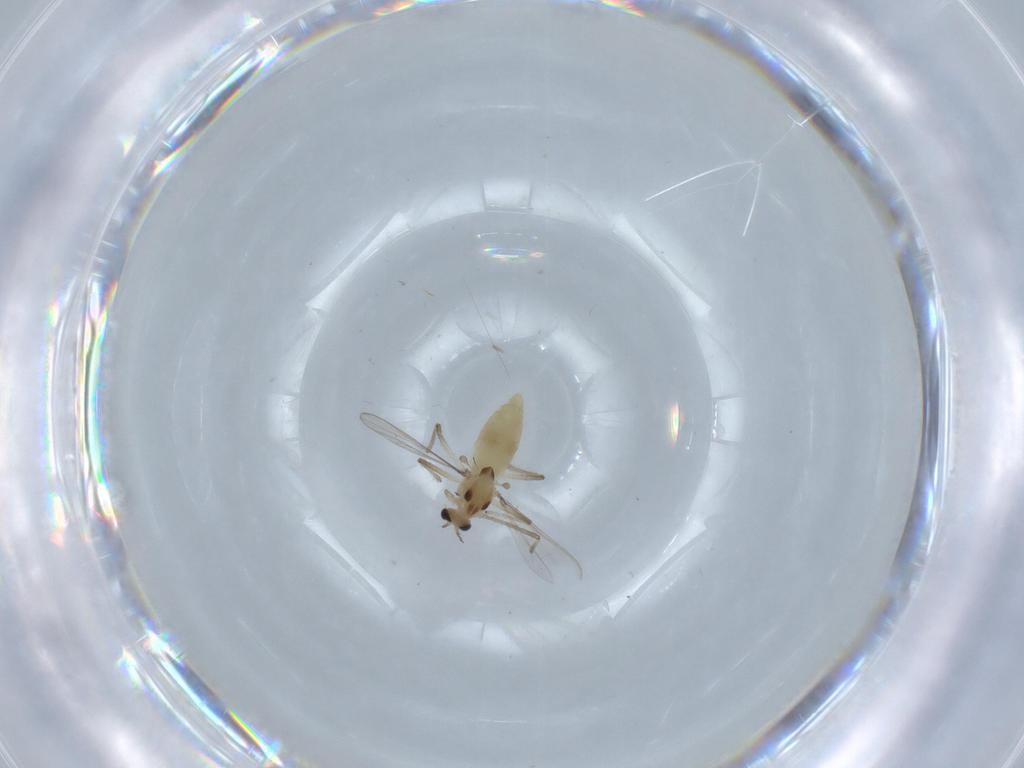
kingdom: Animalia
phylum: Arthropoda
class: Insecta
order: Diptera
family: Chironomidae
